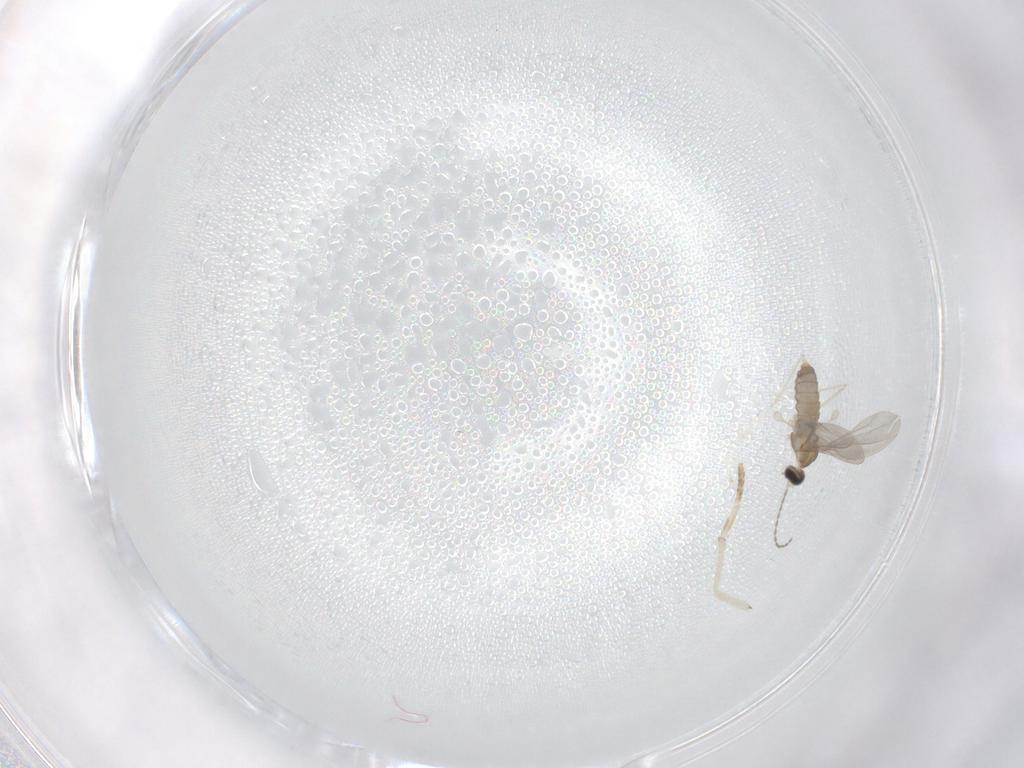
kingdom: Animalia
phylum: Arthropoda
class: Insecta
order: Diptera
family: Cecidomyiidae
